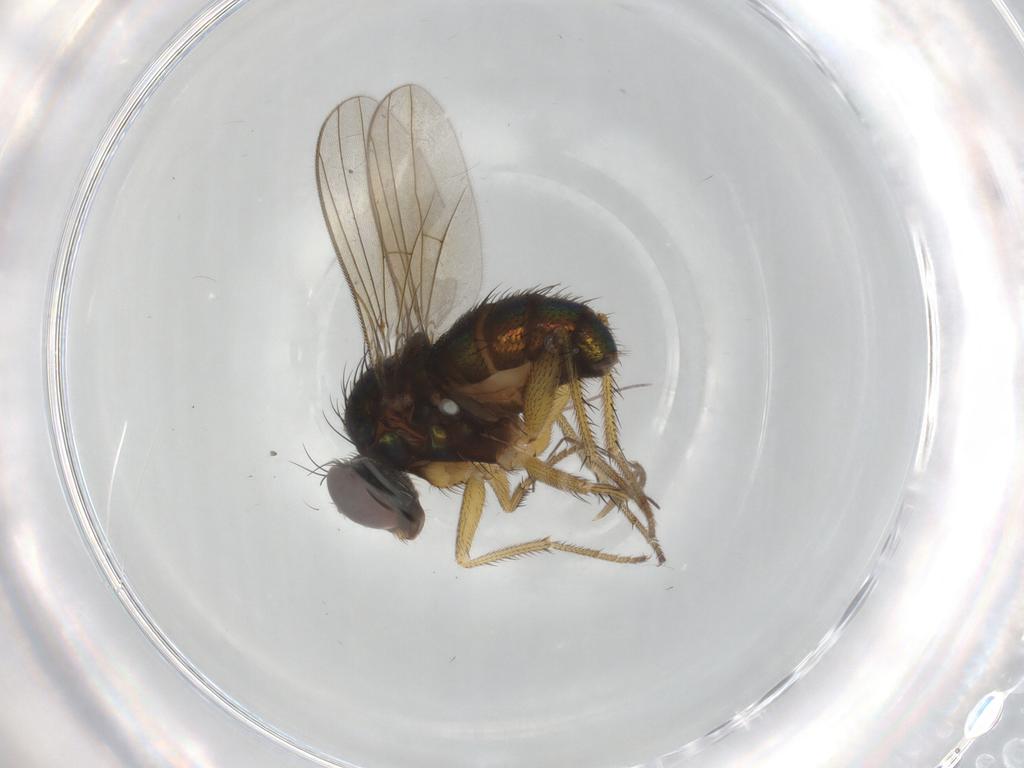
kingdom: Animalia
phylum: Arthropoda
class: Insecta
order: Diptera
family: Dolichopodidae
